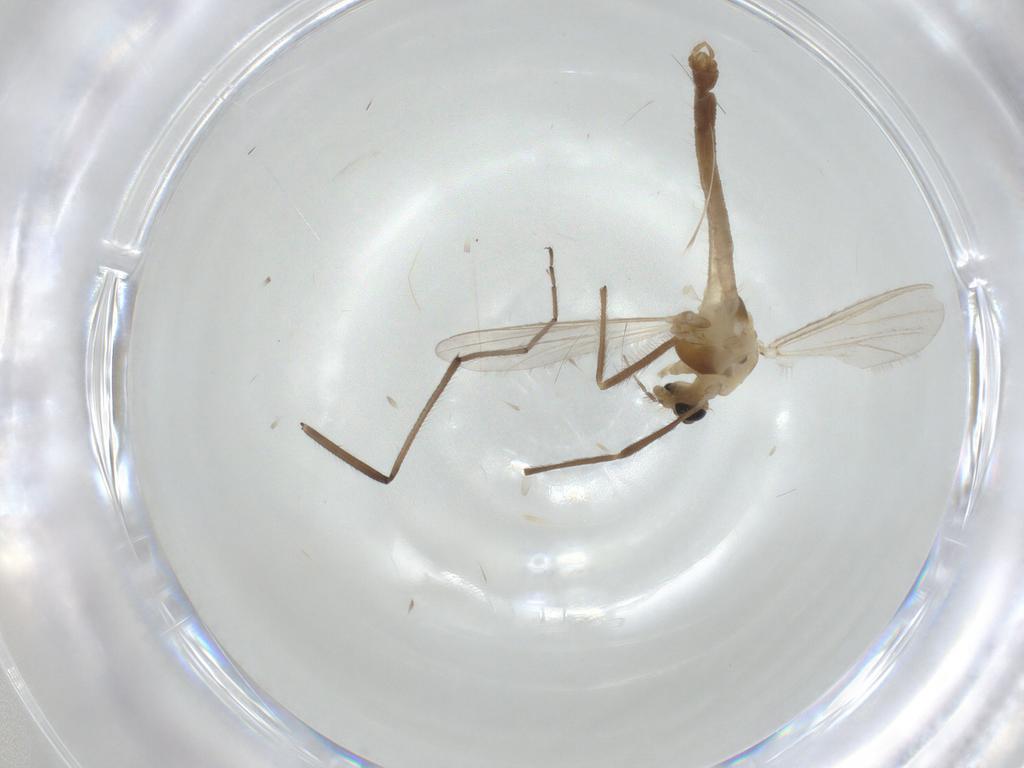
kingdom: Animalia
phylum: Arthropoda
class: Insecta
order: Diptera
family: Chironomidae
